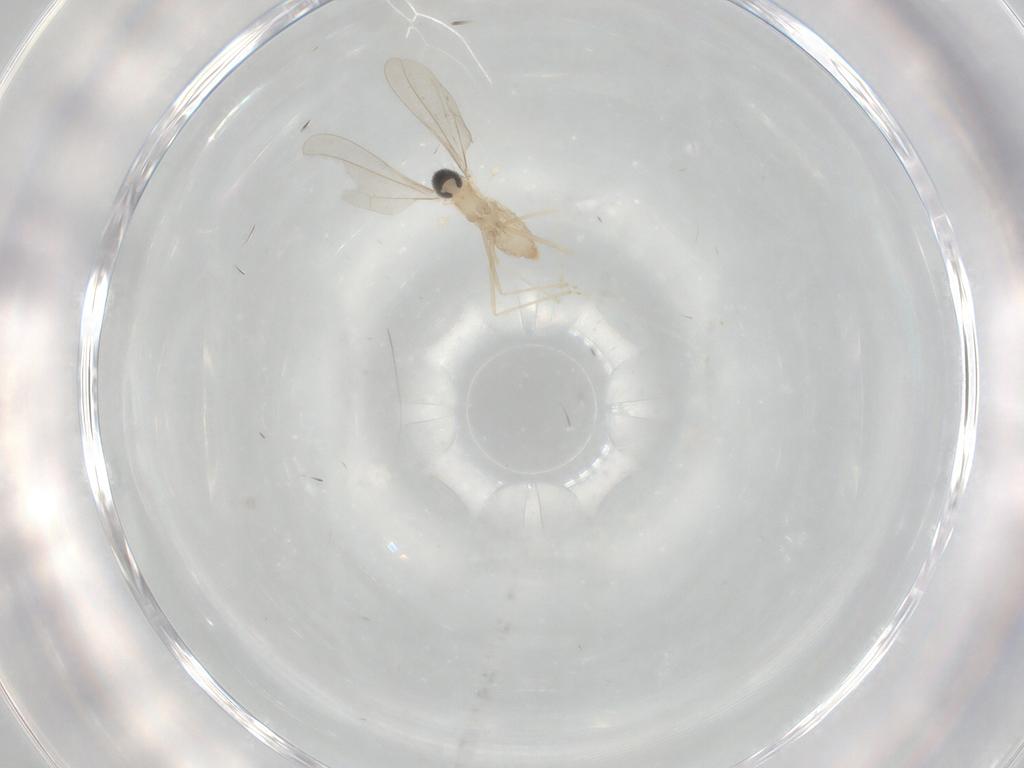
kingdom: Animalia
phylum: Arthropoda
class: Insecta
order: Diptera
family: Cecidomyiidae
